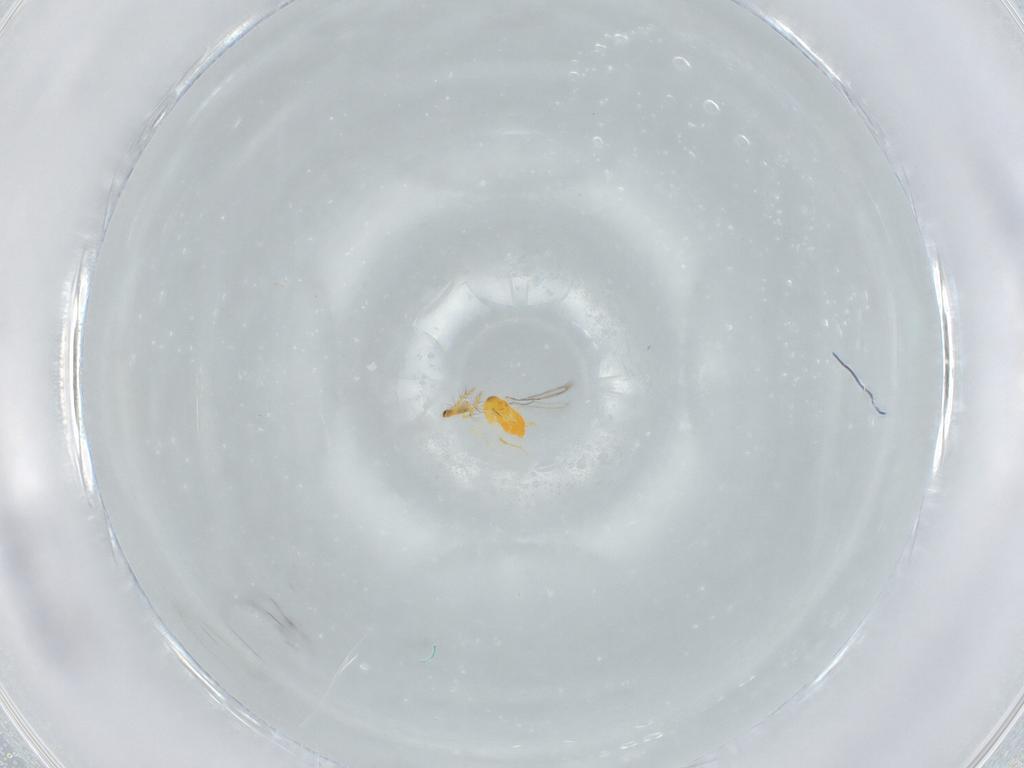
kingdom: Animalia
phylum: Arthropoda
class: Insecta
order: Hymenoptera
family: Aphelinidae
